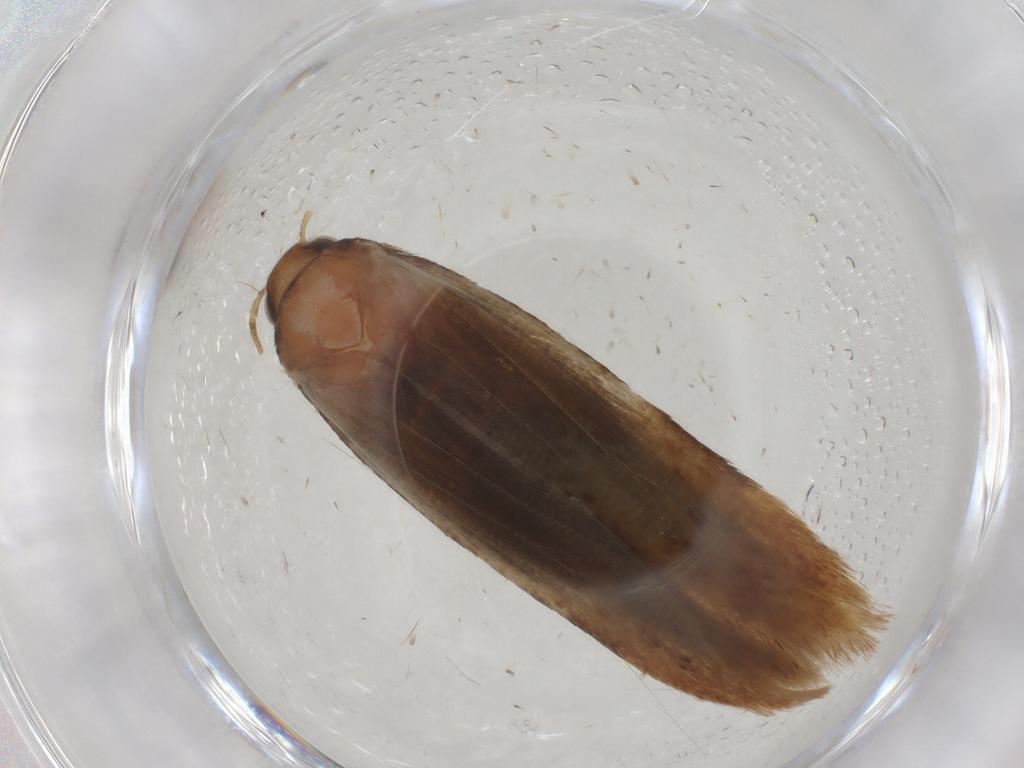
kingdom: Animalia
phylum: Arthropoda
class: Insecta
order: Lepidoptera
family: Gelechiidae
